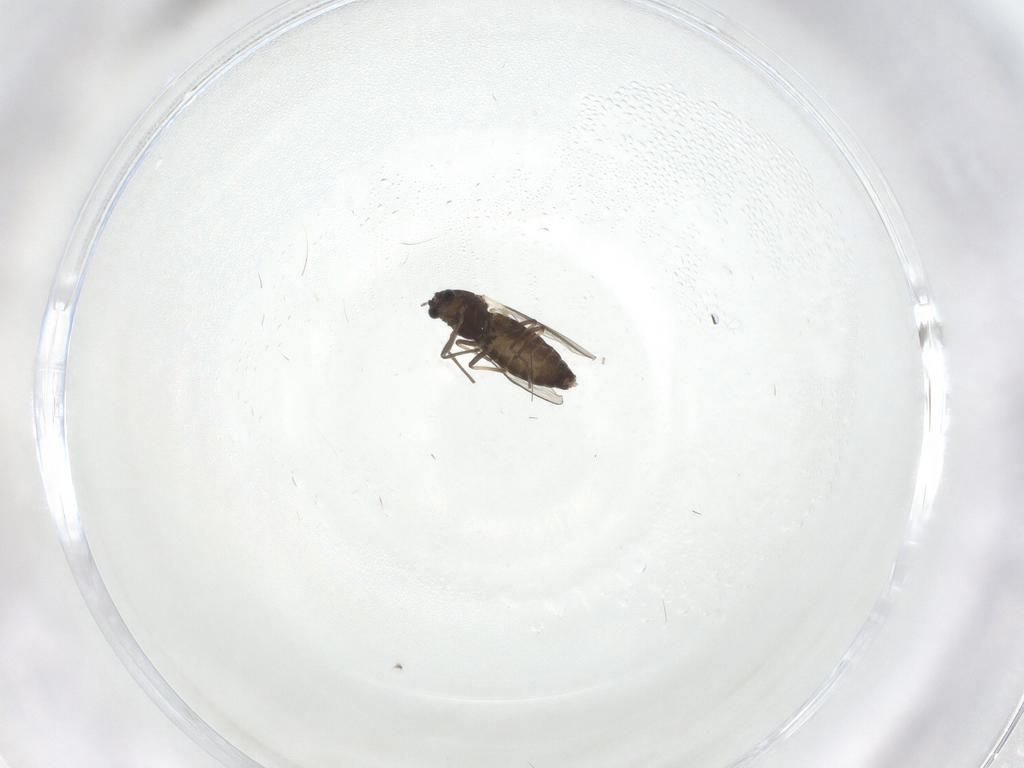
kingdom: Animalia
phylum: Arthropoda
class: Insecta
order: Diptera
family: Chironomidae
